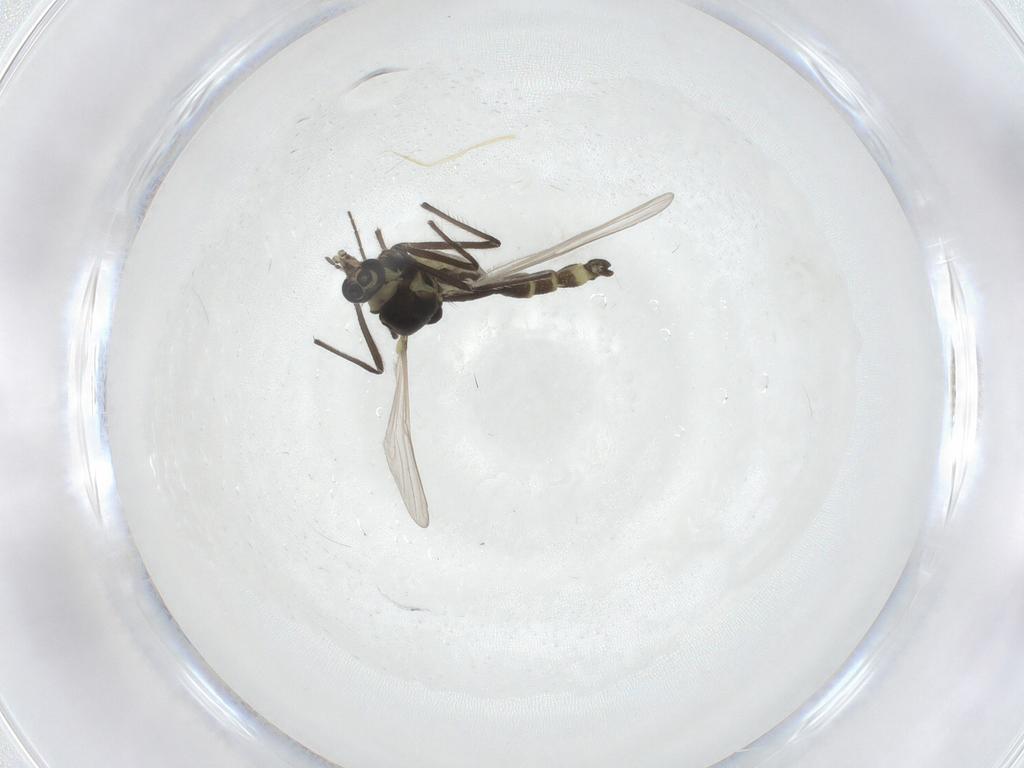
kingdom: Animalia
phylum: Arthropoda
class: Insecta
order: Diptera
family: Chironomidae
